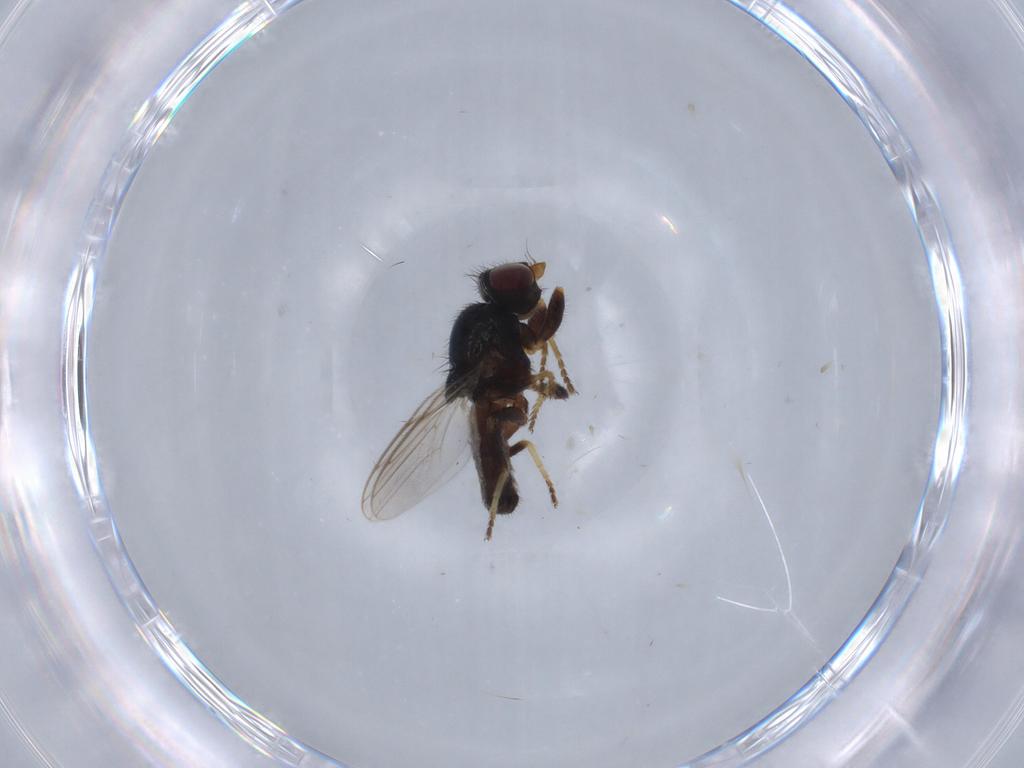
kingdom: Animalia
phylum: Arthropoda
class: Insecta
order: Diptera
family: Chloropidae
